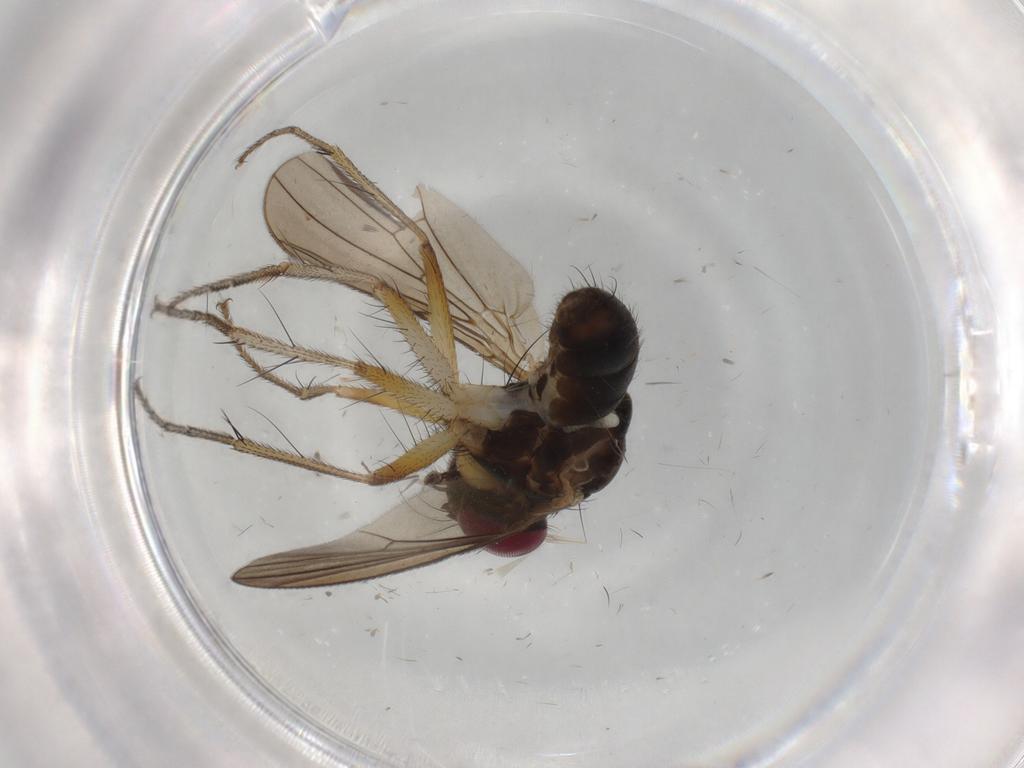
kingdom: Animalia
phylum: Arthropoda
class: Insecta
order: Diptera
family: Anthomyiidae
